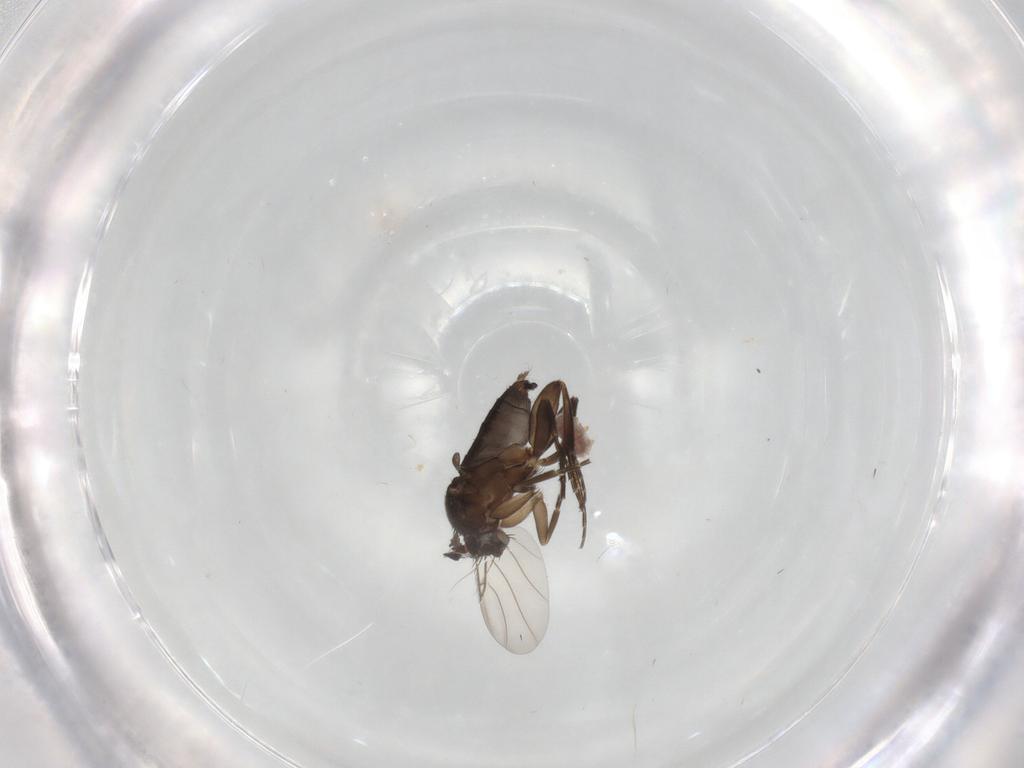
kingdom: Animalia
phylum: Arthropoda
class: Insecta
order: Diptera
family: Phoridae
